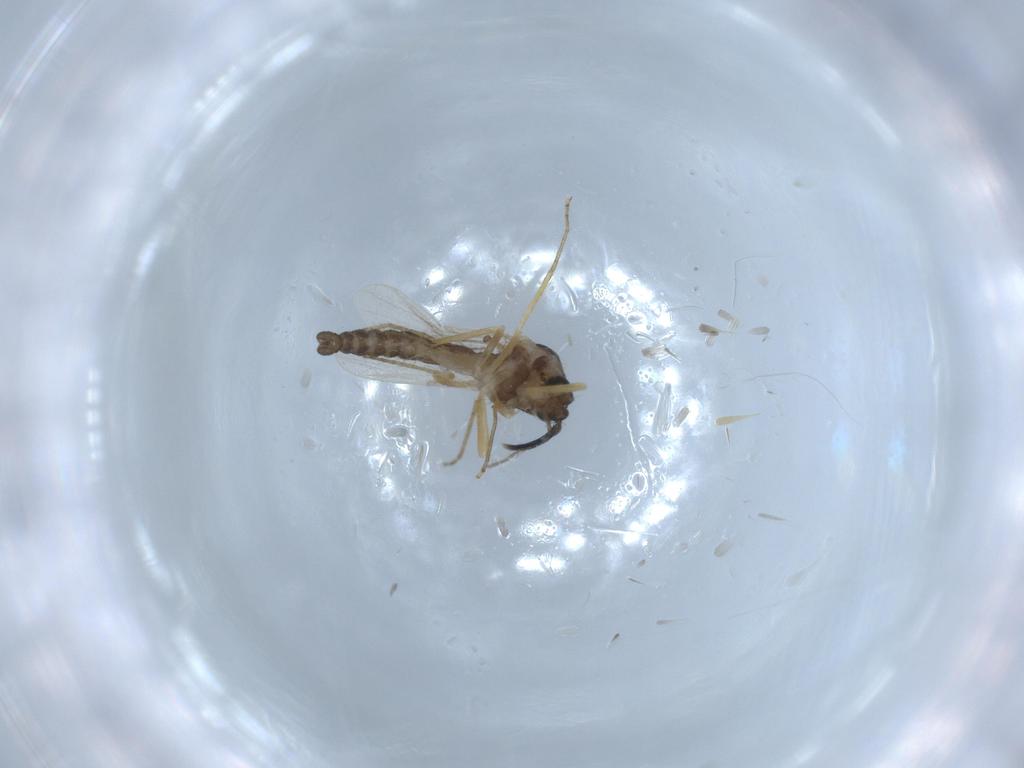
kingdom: Animalia
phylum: Arthropoda
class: Insecta
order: Diptera
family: Ceratopogonidae
